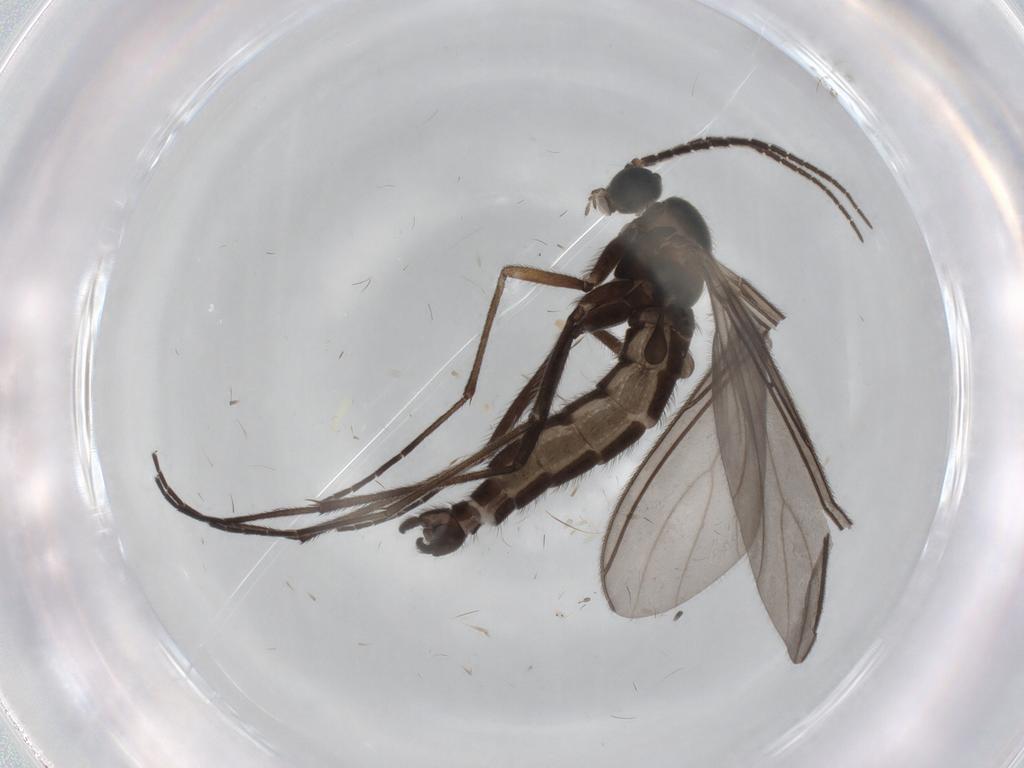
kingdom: Animalia
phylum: Arthropoda
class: Insecta
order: Diptera
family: Sciaridae
